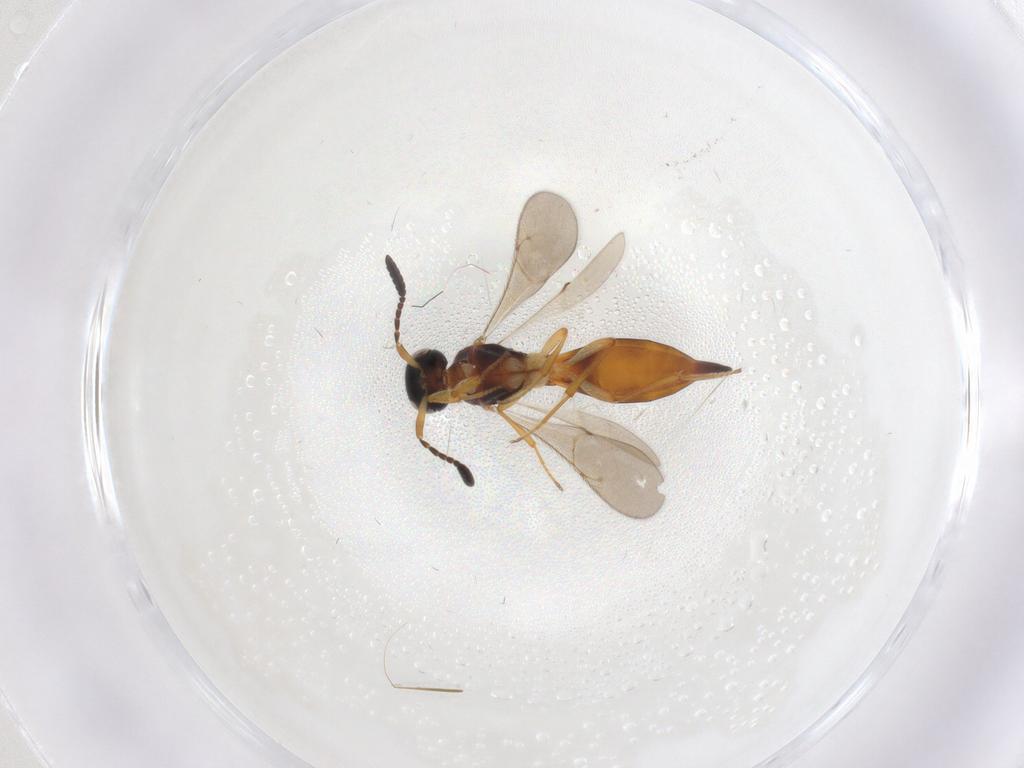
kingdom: Animalia
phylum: Arthropoda
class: Insecta
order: Hymenoptera
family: Scelionidae
